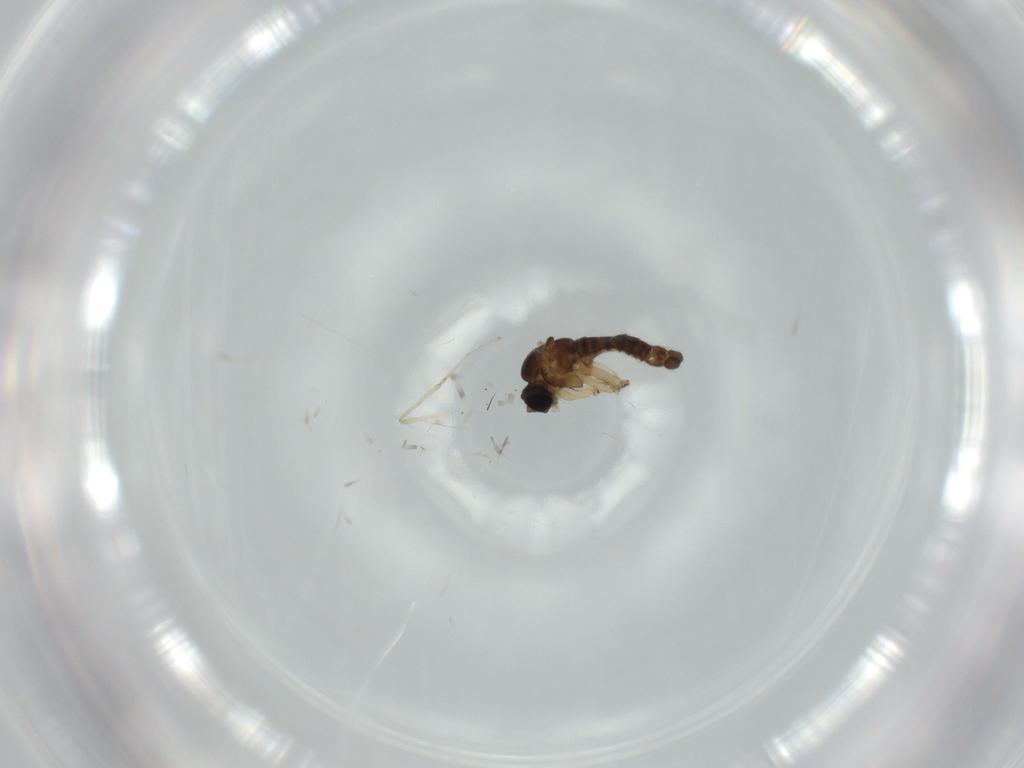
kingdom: Animalia
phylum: Arthropoda
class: Insecta
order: Diptera
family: Sciaridae
